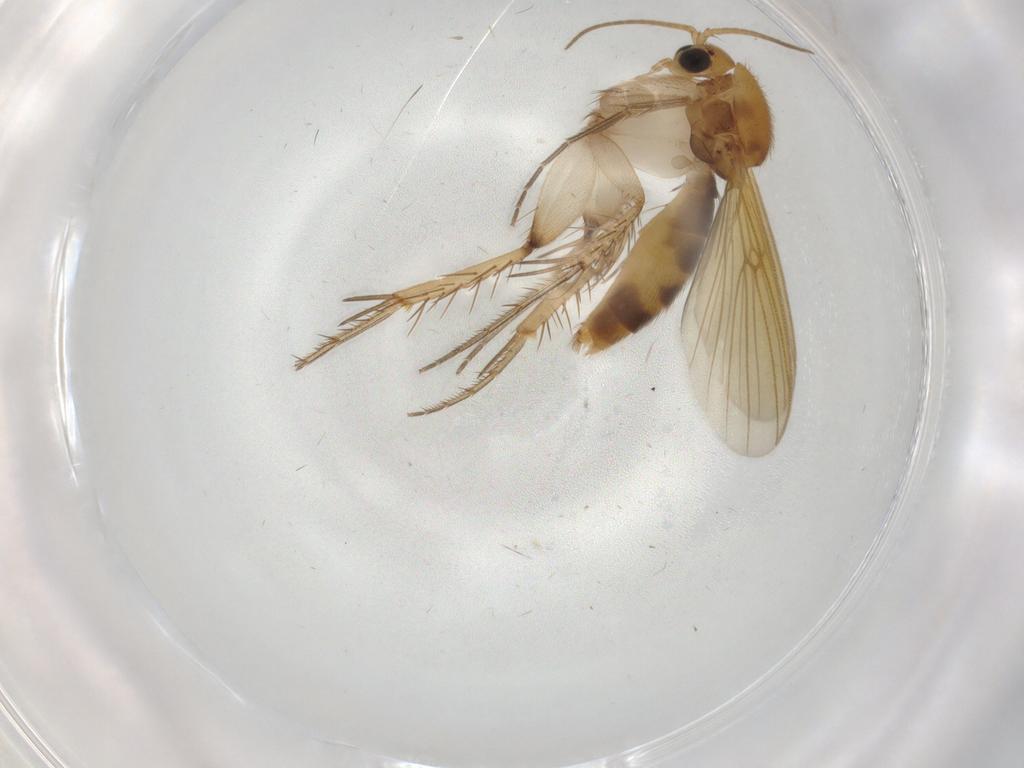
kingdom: Animalia
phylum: Arthropoda
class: Insecta
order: Diptera
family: Mycetophilidae
